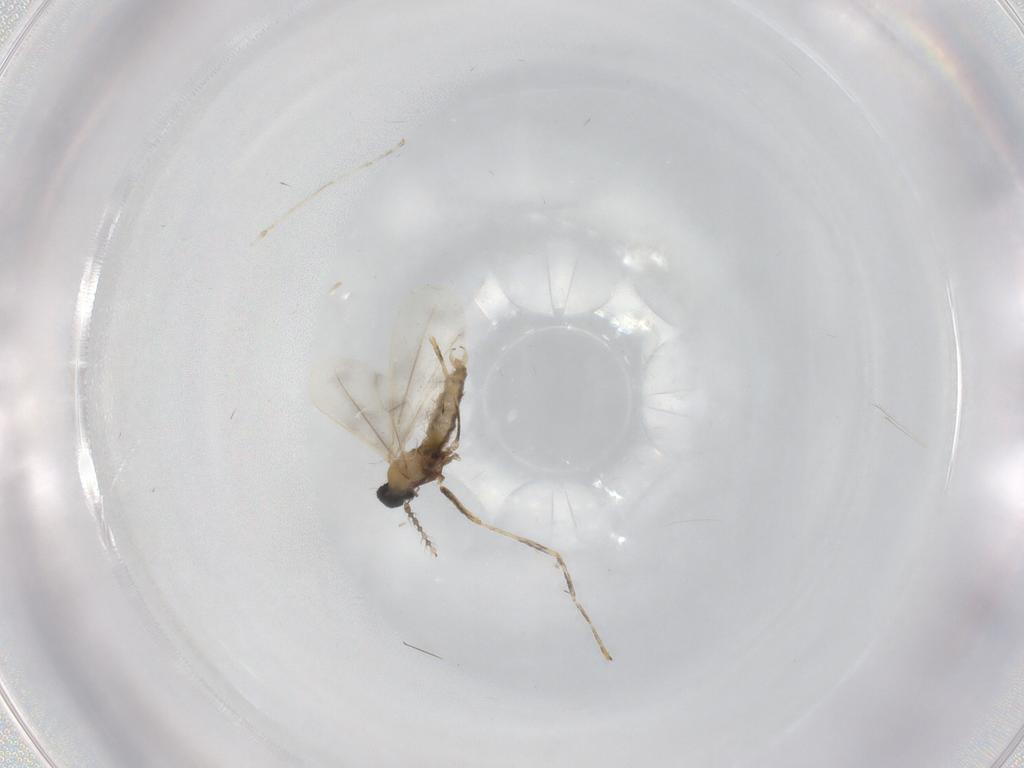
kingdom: Animalia
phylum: Arthropoda
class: Insecta
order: Diptera
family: Cecidomyiidae
